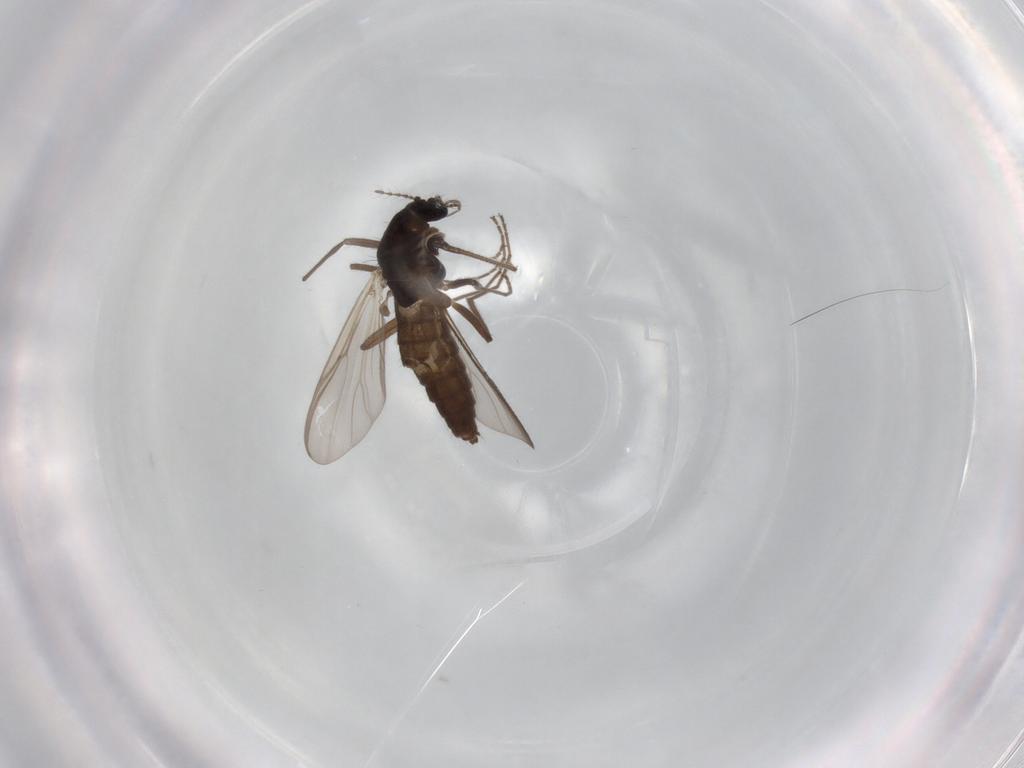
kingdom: Animalia
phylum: Arthropoda
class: Insecta
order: Diptera
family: Chironomidae
